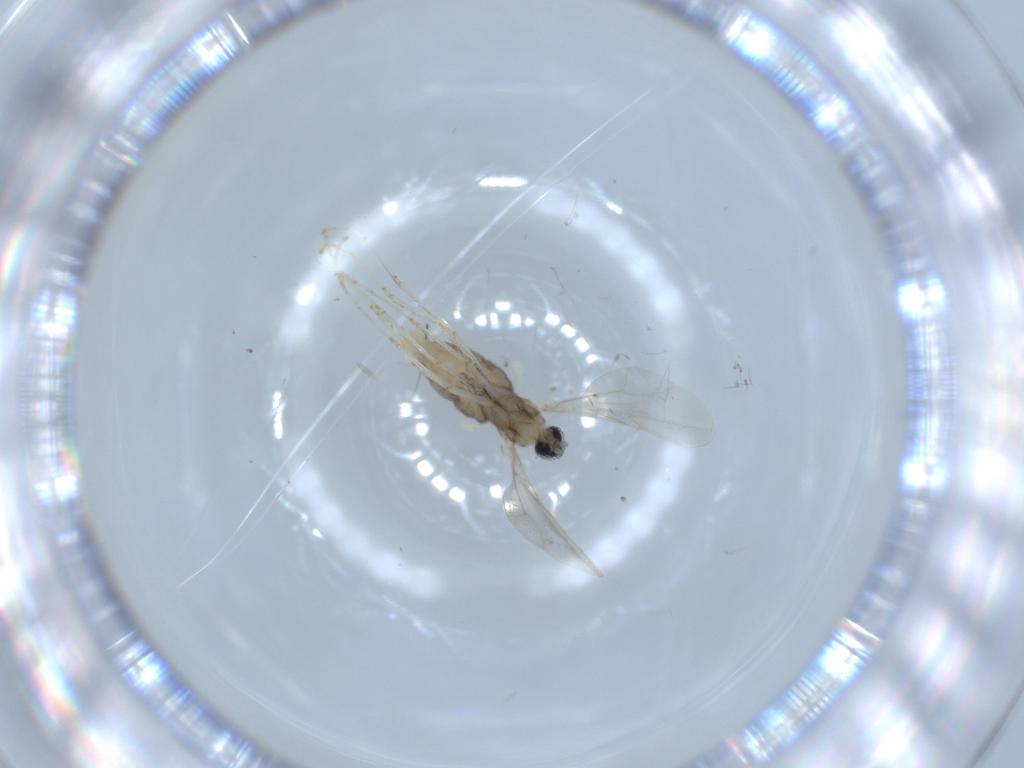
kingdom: Animalia
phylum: Arthropoda
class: Insecta
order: Diptera
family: Cecidomyiidae
